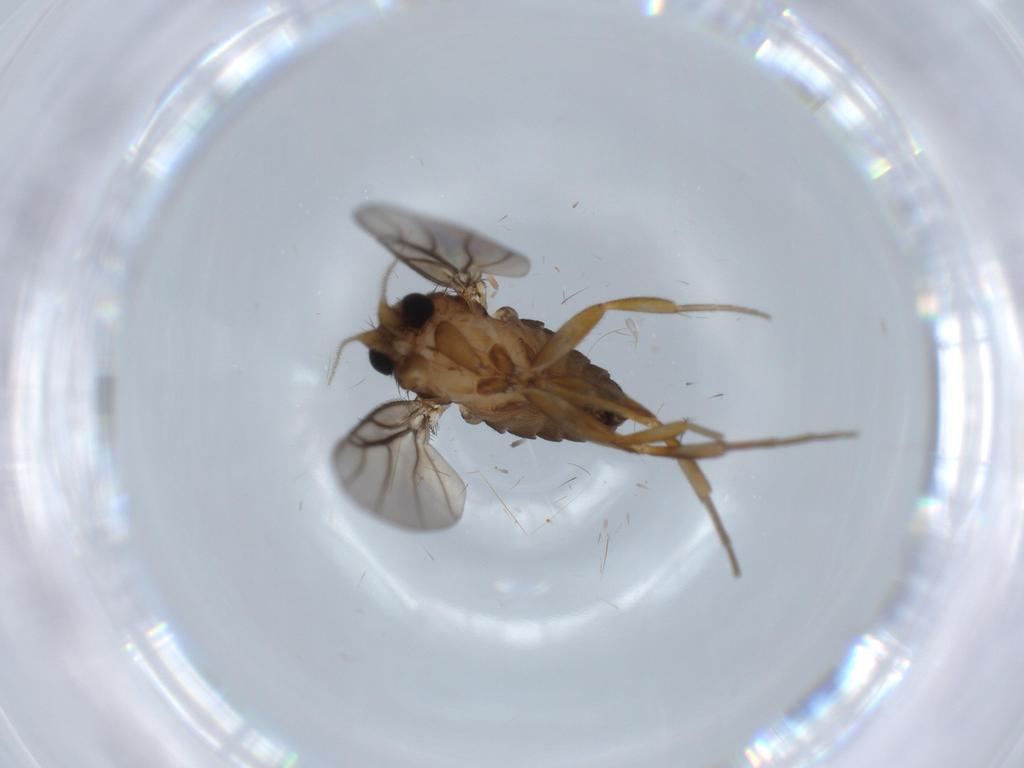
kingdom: Animalia
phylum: Arthropoda
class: Insecta
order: Diptera
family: Phoridae
